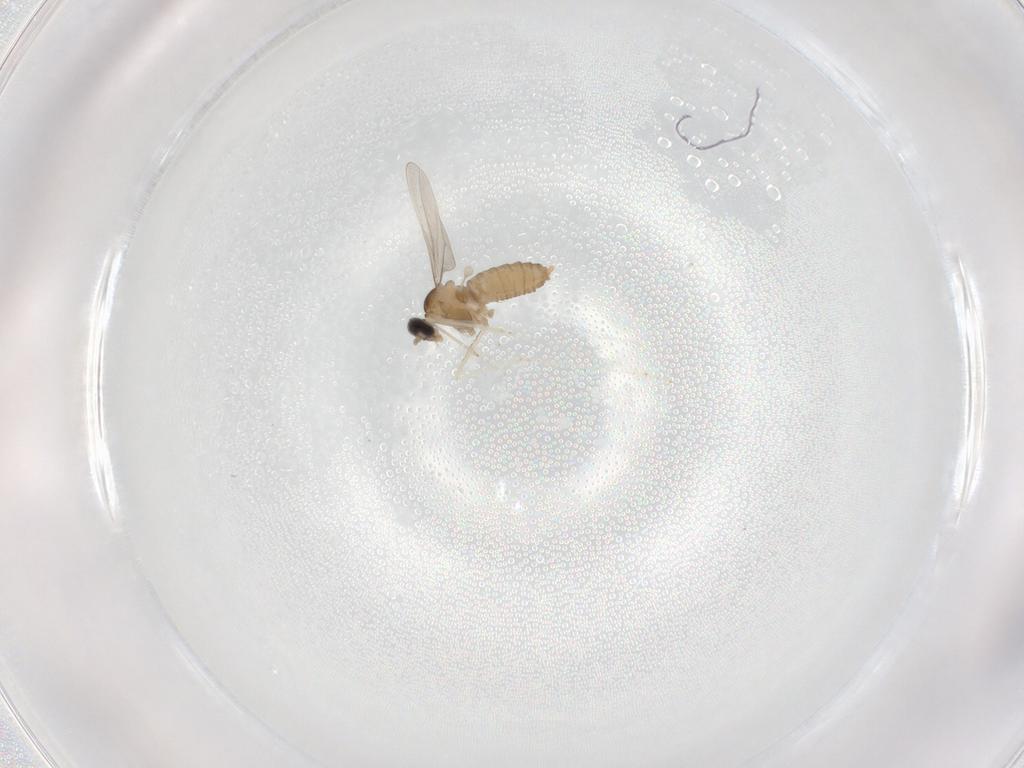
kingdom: Animalia
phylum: Arthropoda
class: Insecta
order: Diptera
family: Cecidomyiidae
